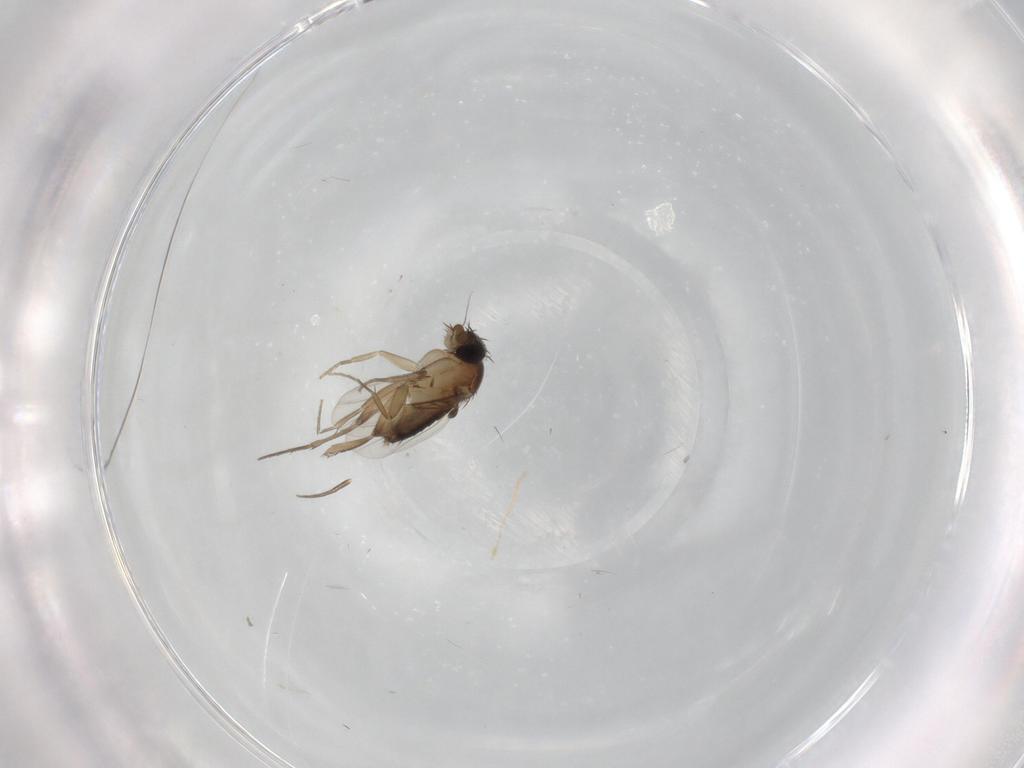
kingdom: Animalia
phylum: Arthropoda
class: Insecta
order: Diptera
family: Phoridae
